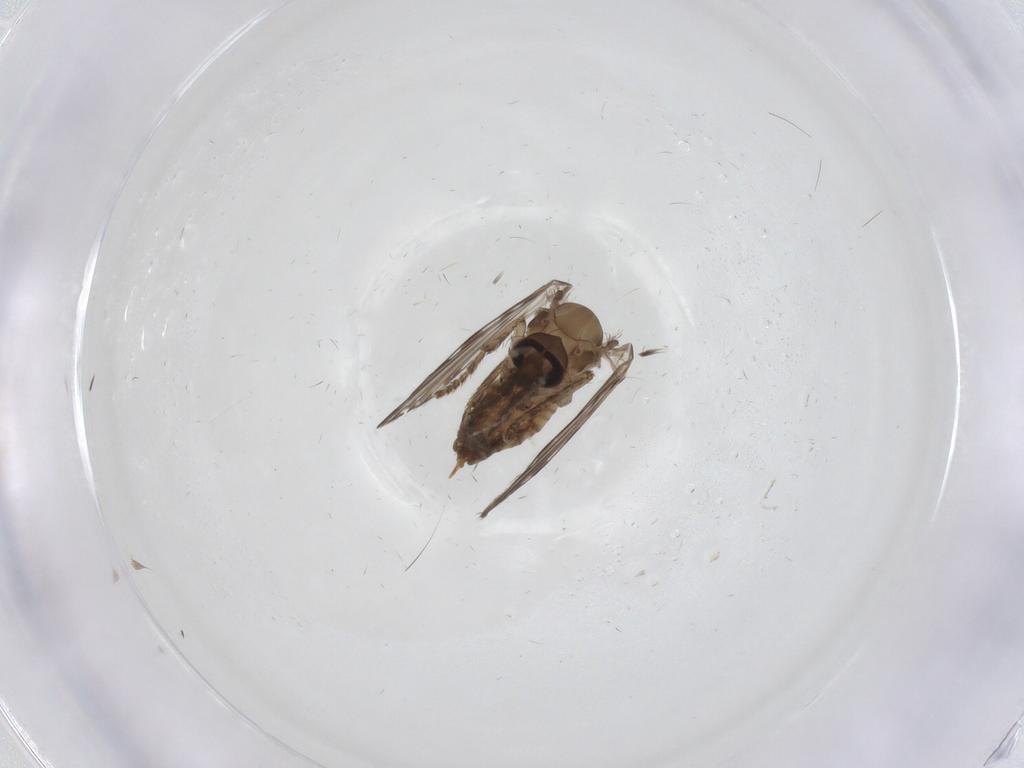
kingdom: Animalia
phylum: Arthropoda
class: Insecta
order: Diptera
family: Psychodidae
